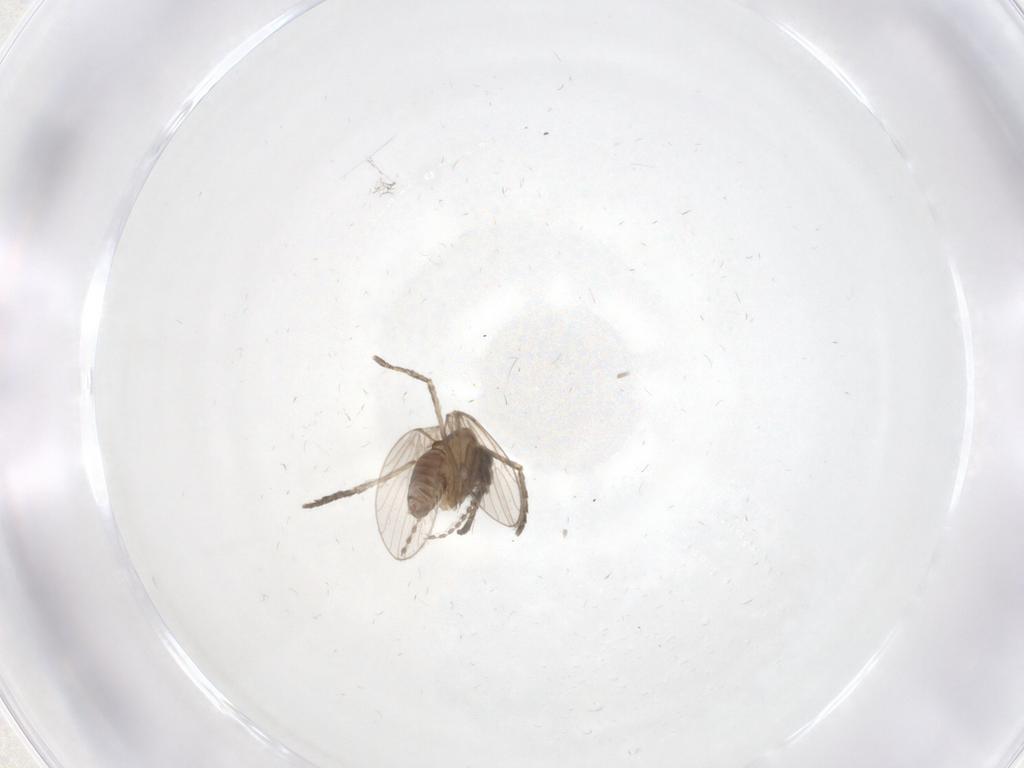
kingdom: Animalia
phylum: Arthropoda
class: Insecta
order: Diptera
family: Psychodidae
